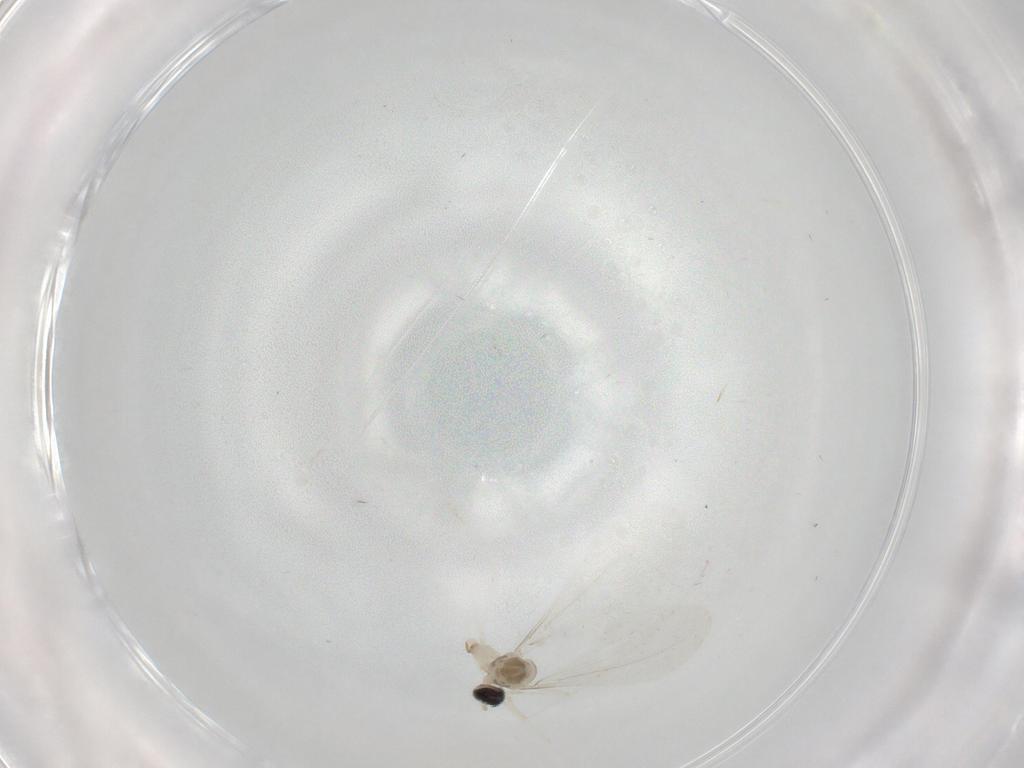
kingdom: Animalia
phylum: Arthropoda
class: Insecta
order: Diptera
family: Cecidomyiidae
